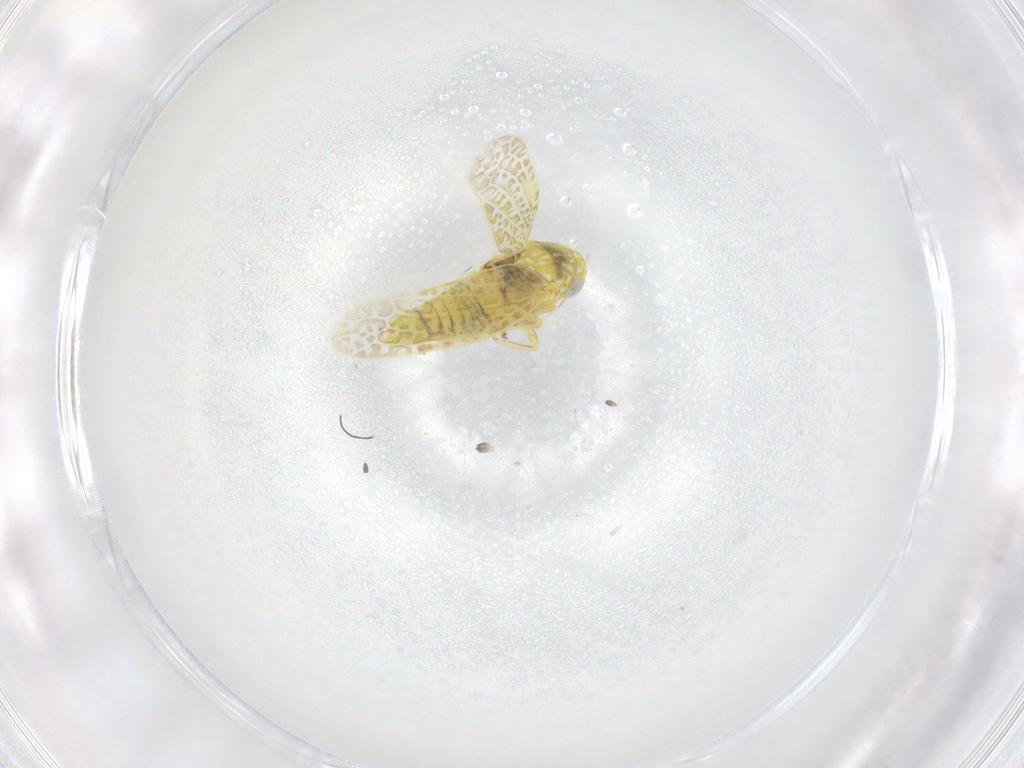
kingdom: Animalia
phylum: Arthropoda
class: Insecta
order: Hemiptera
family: Cicadellidae
